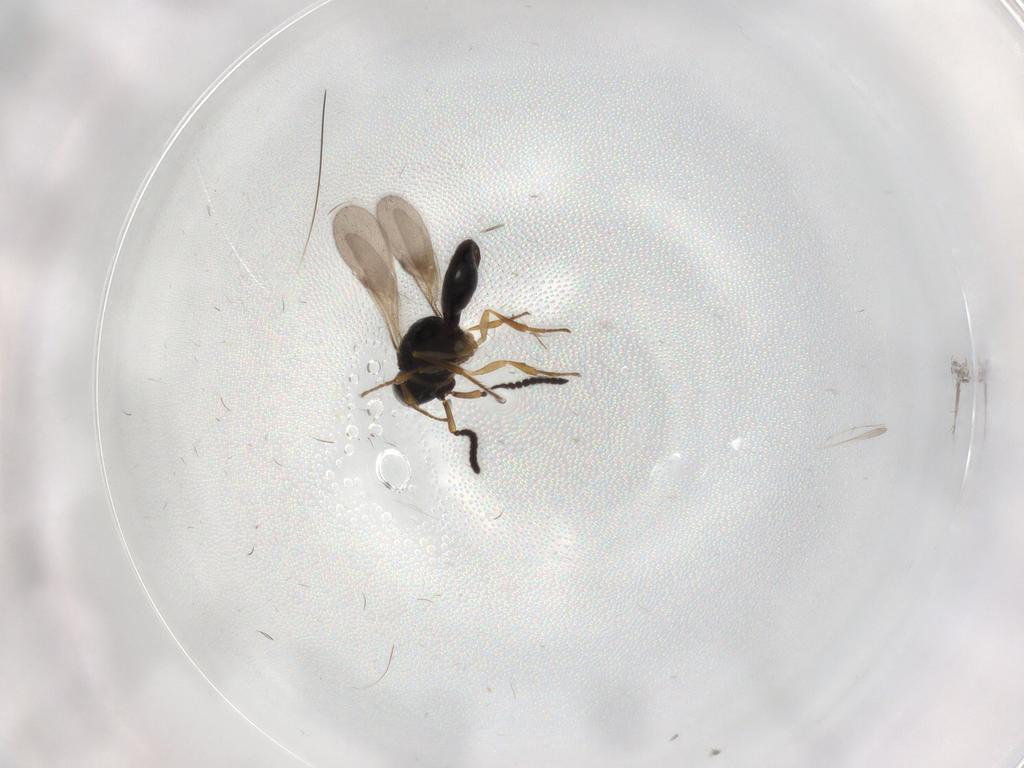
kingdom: Animalia
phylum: Arthropoda
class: Insecta
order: Hymenoptera
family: Scelionidae
